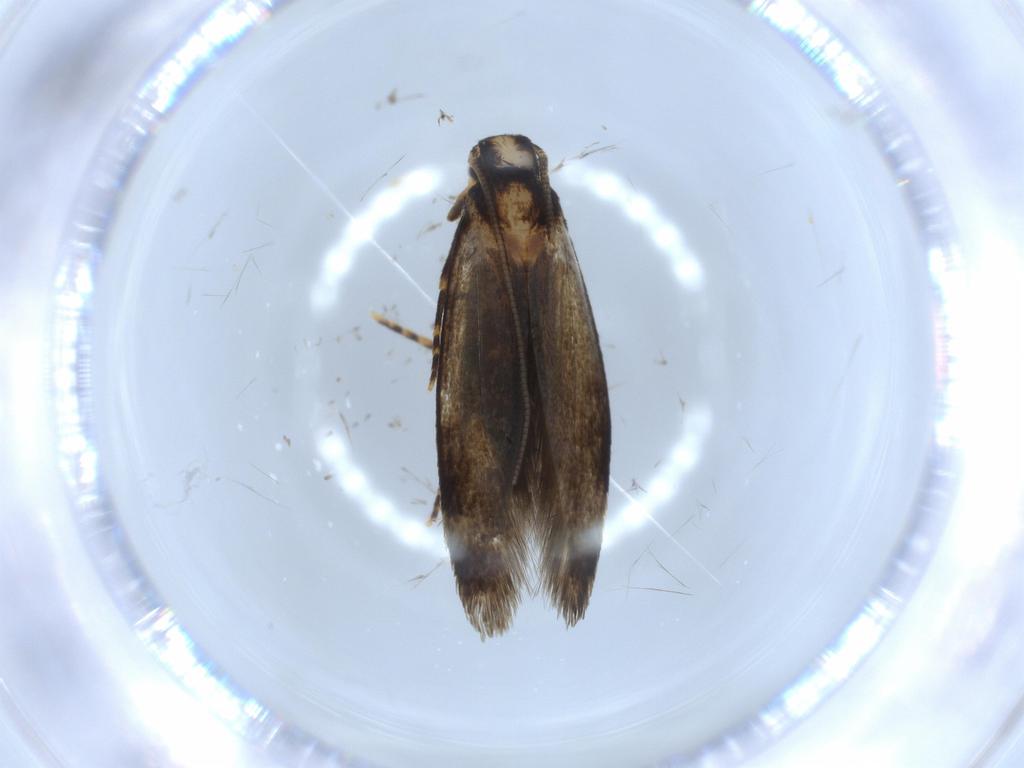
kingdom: Animalia
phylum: Arthropoda
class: Insecta
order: Lepidoptera
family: Tineidae
